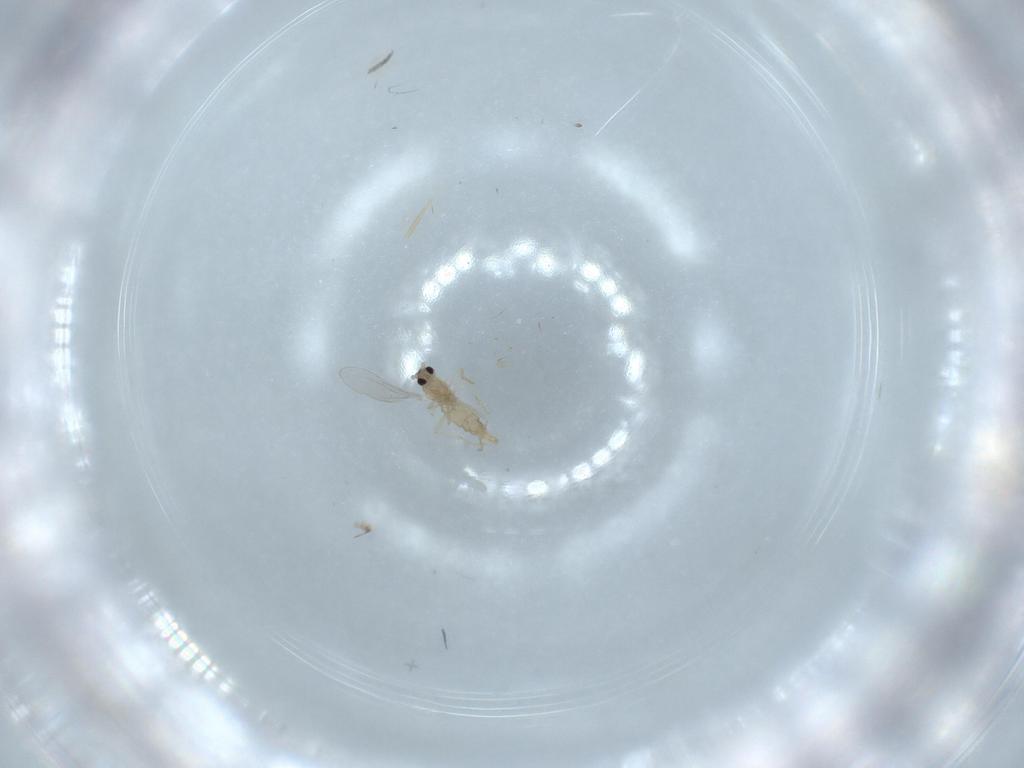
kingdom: Animalia
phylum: Arthropoda
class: Insecta
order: Diptera
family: Cecidomyiidae
